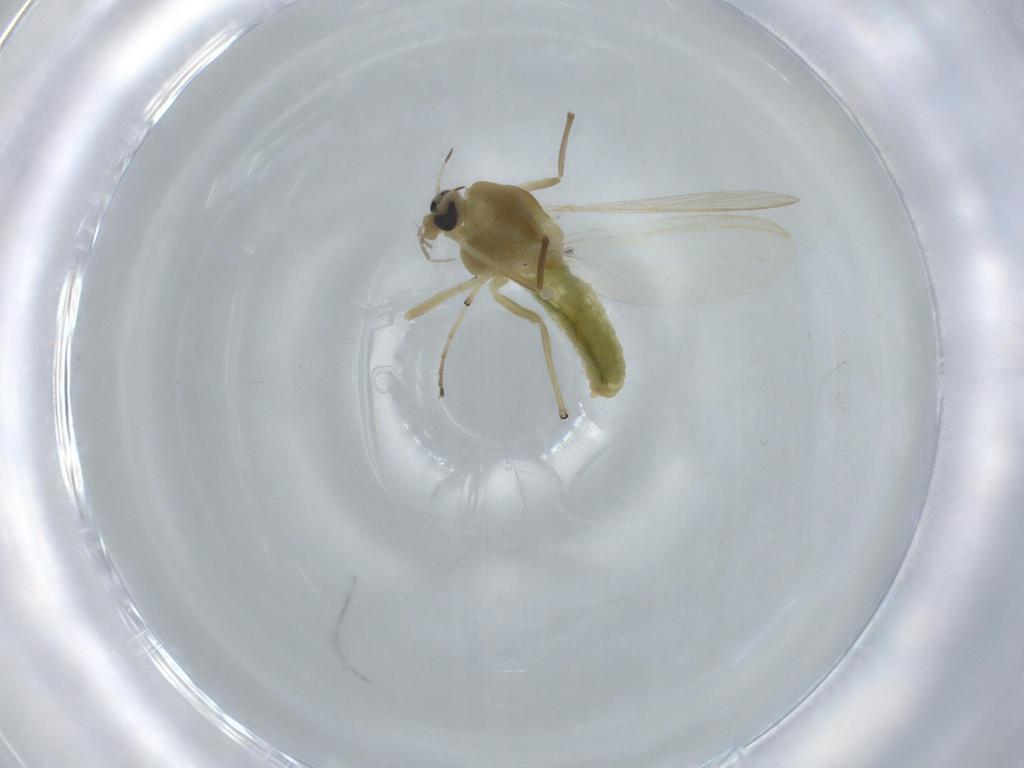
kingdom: Animalia
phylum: Arthropoda
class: Insecta
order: Diptera
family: Chironomidae
